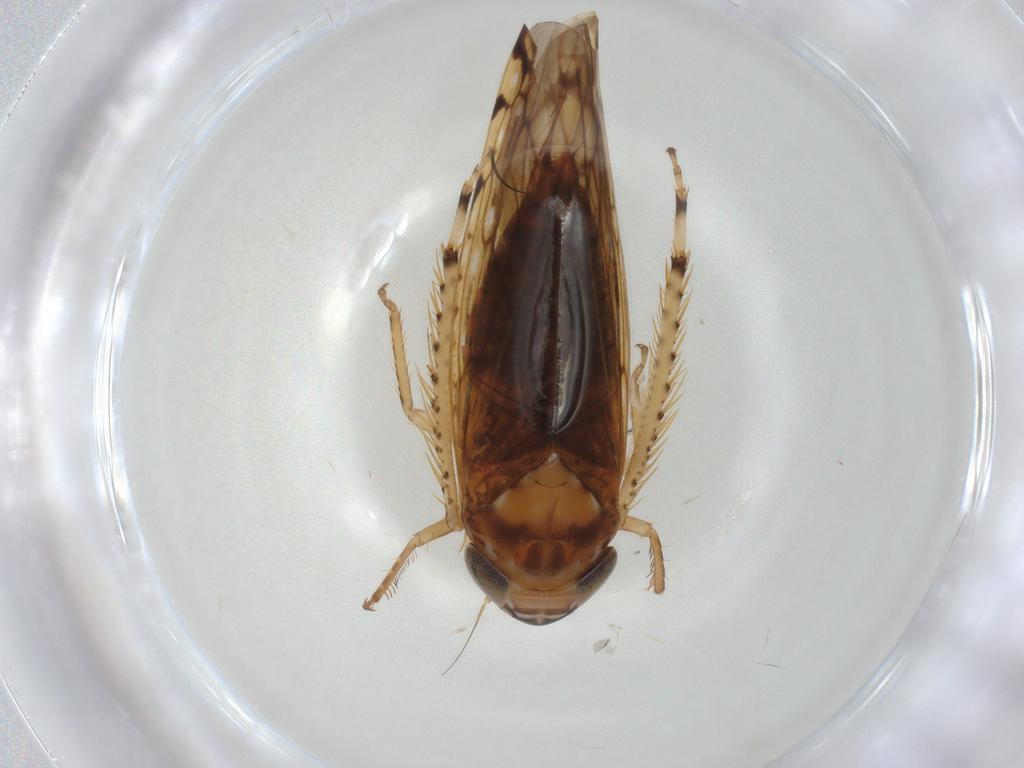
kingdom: Animalia
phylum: Arthropoda
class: Insecta
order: Hemiptera
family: Cicadellidae
